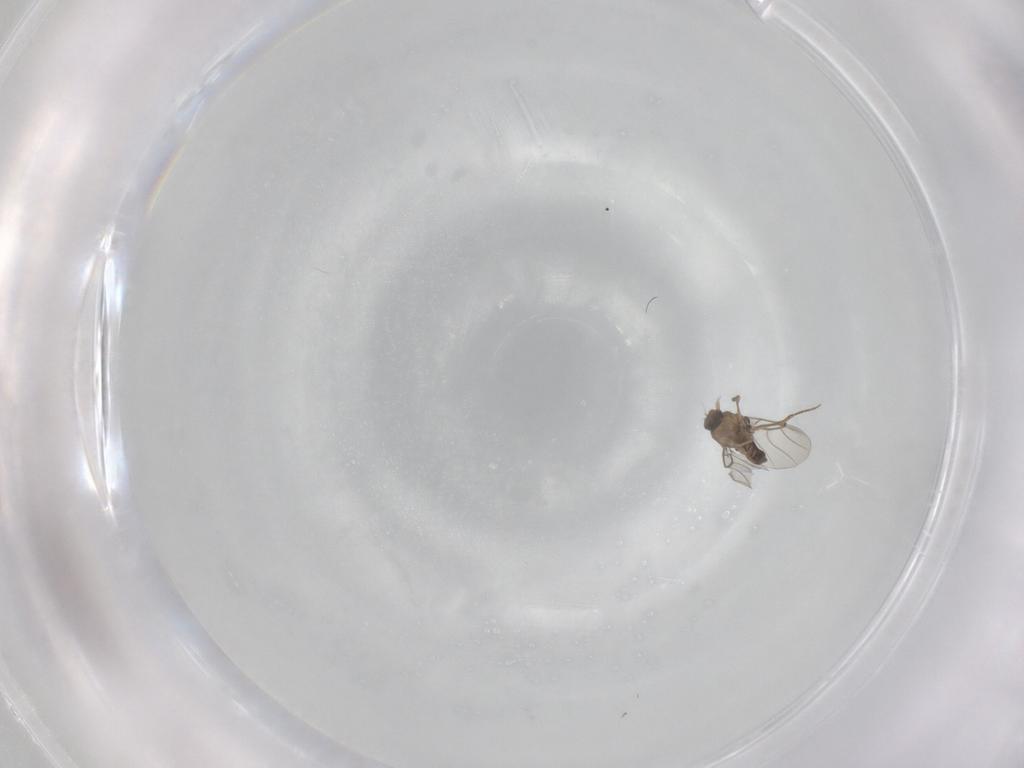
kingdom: Animalia
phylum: Arthropoda
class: Insecta
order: Diptera
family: Phoridae
